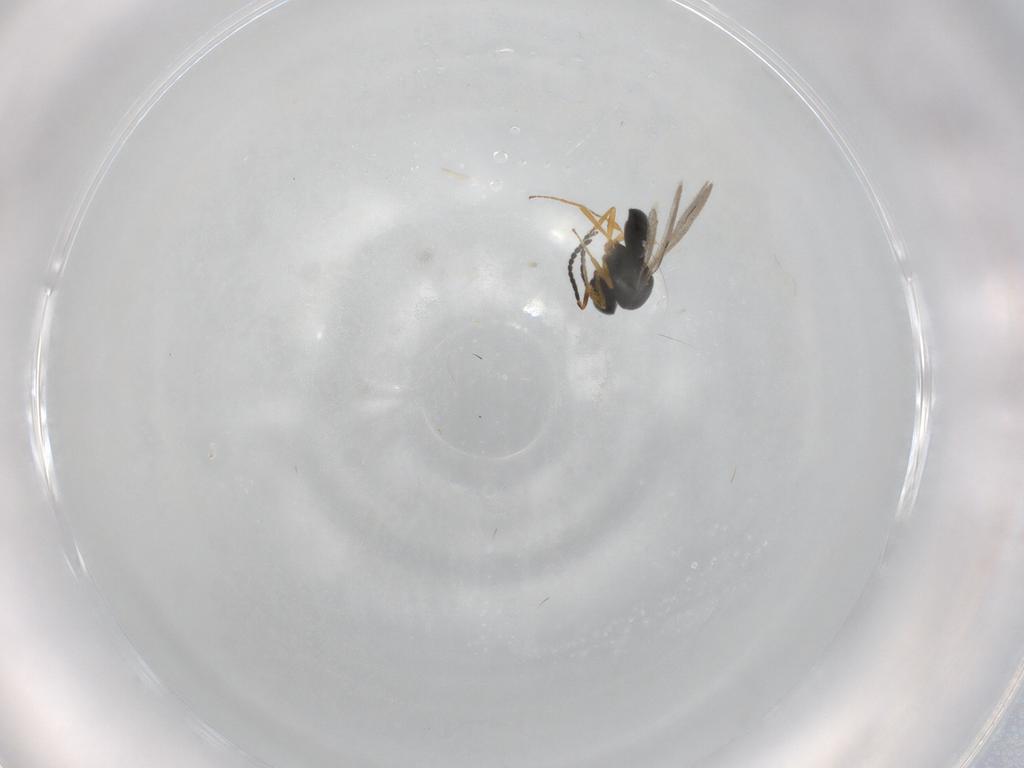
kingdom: Animalia
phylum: Arthropoda
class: Insecta
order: Hymenoptera
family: Scelionidae
